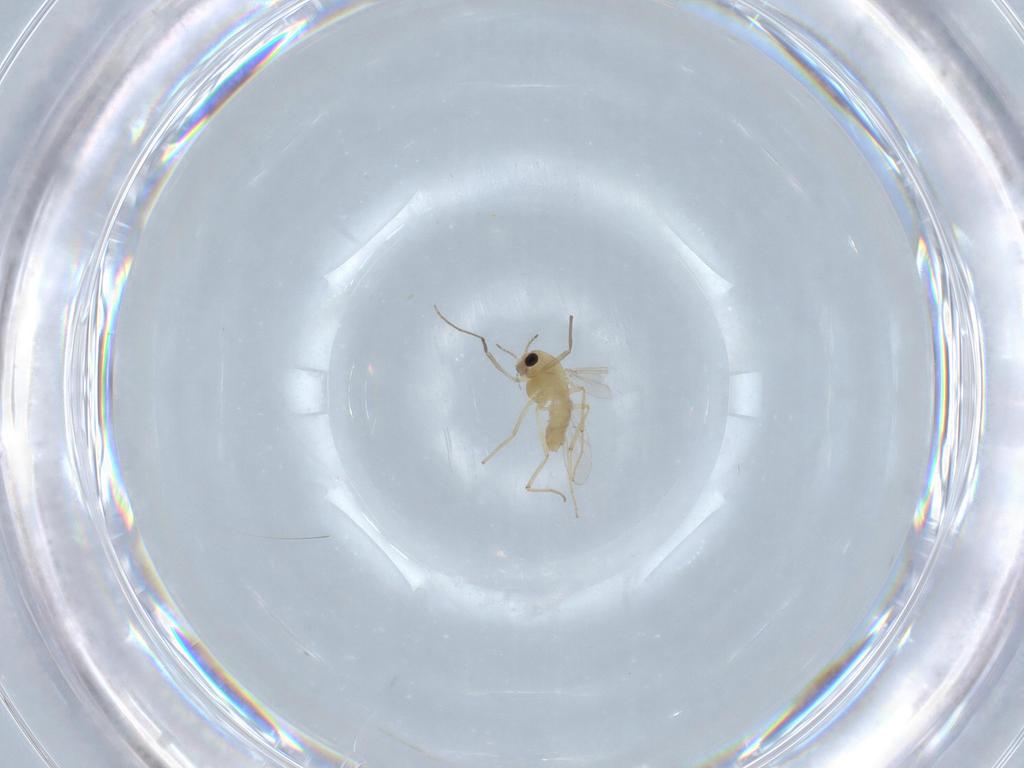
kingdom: Animalia
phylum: Arthropoda
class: Insecta
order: Diptera
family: Chironomidae
